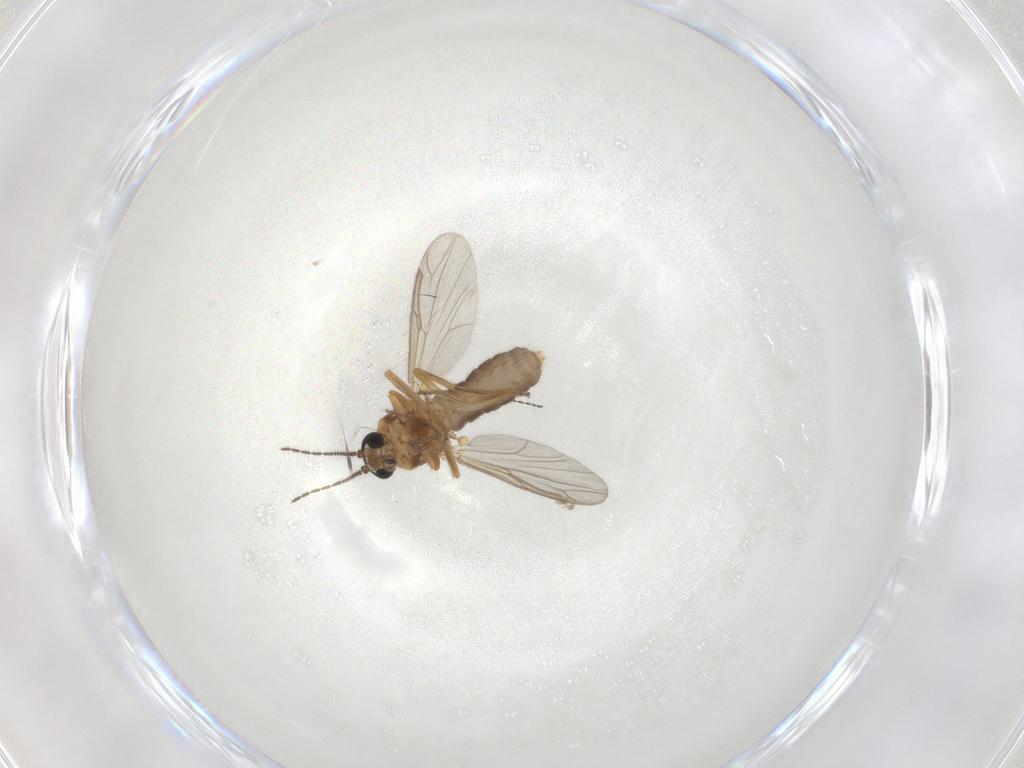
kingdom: Animalia
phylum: Arthropoda
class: Insecta
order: Diptera
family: Ceratopogonidae
